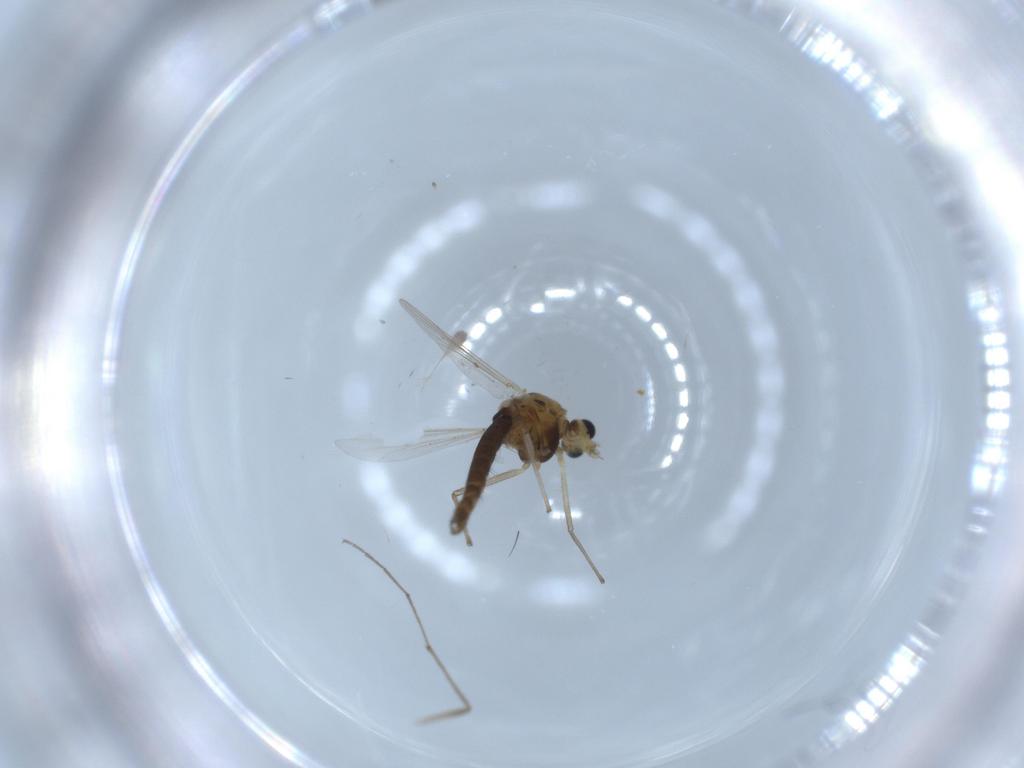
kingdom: Animalia
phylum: Arthropoda
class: Insecta
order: Diptera
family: Chironomidae
